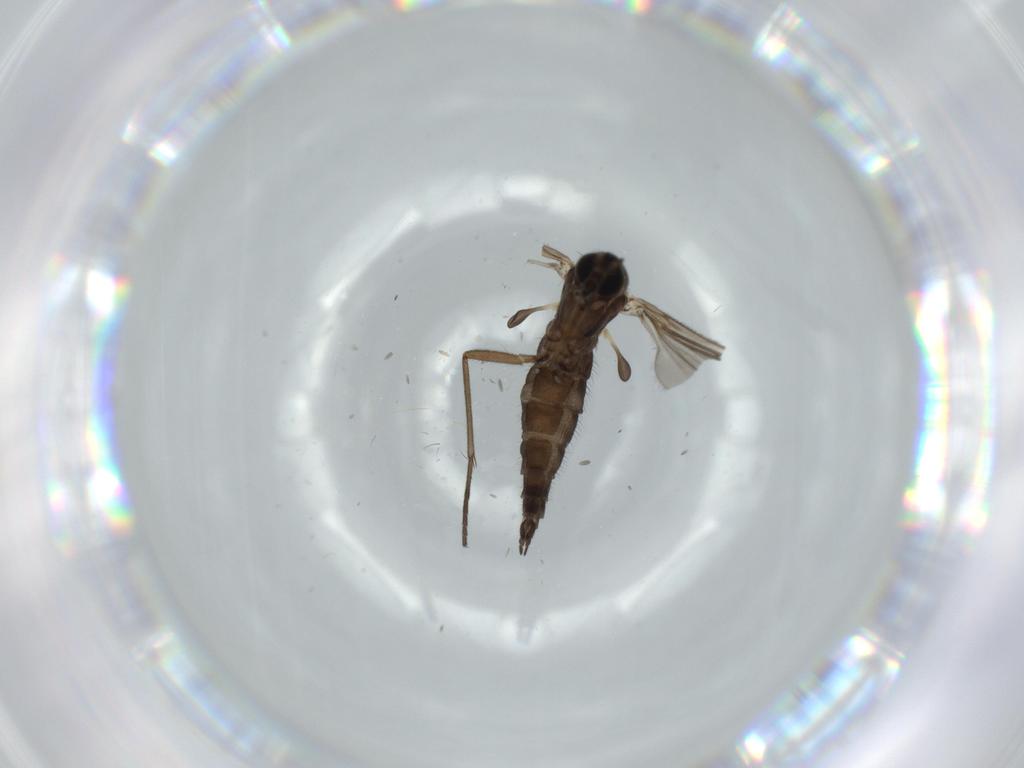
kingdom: Animalia
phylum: Arthropoda
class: Insecta
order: Diptera
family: Sciaridae
